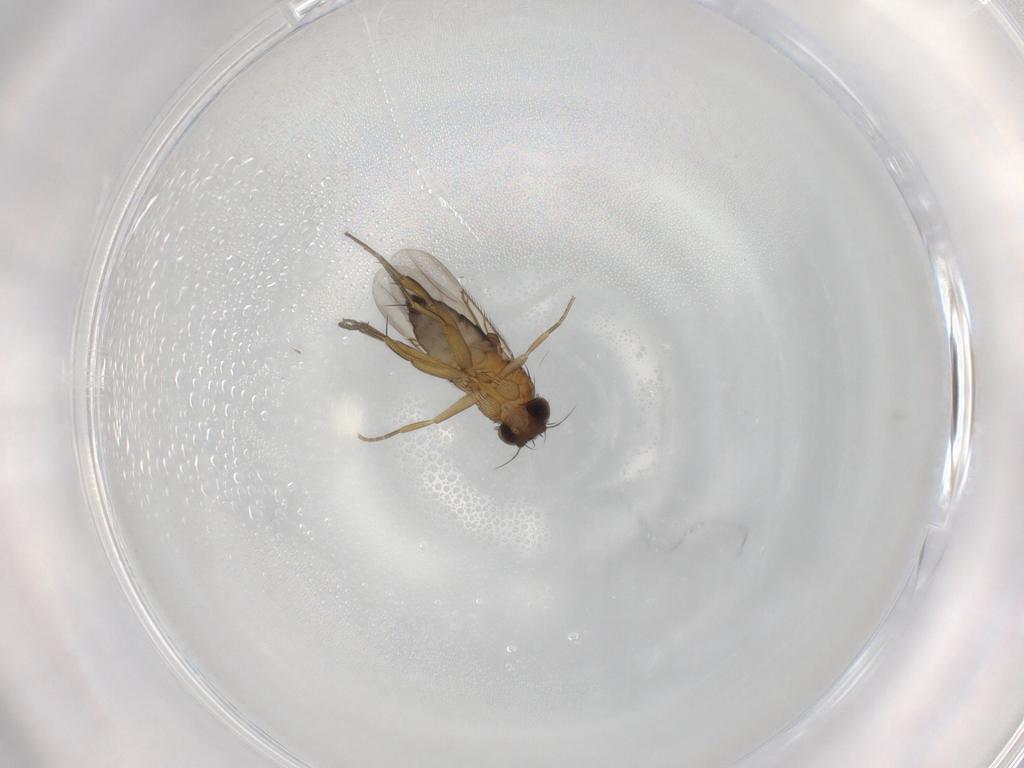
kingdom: Animalia
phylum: Arthropoda
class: Insecta
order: Diptera
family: Phoridae
